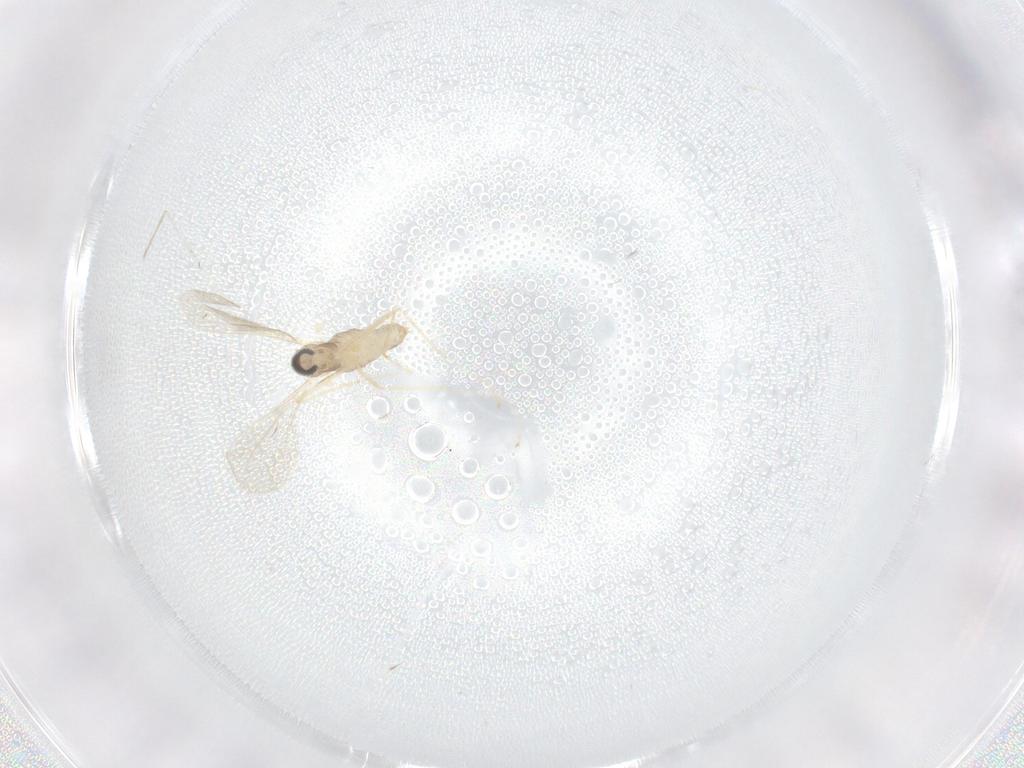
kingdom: Animalia
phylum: Arthropoda
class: Insecta
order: Diptera
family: Cecidomyiidae
